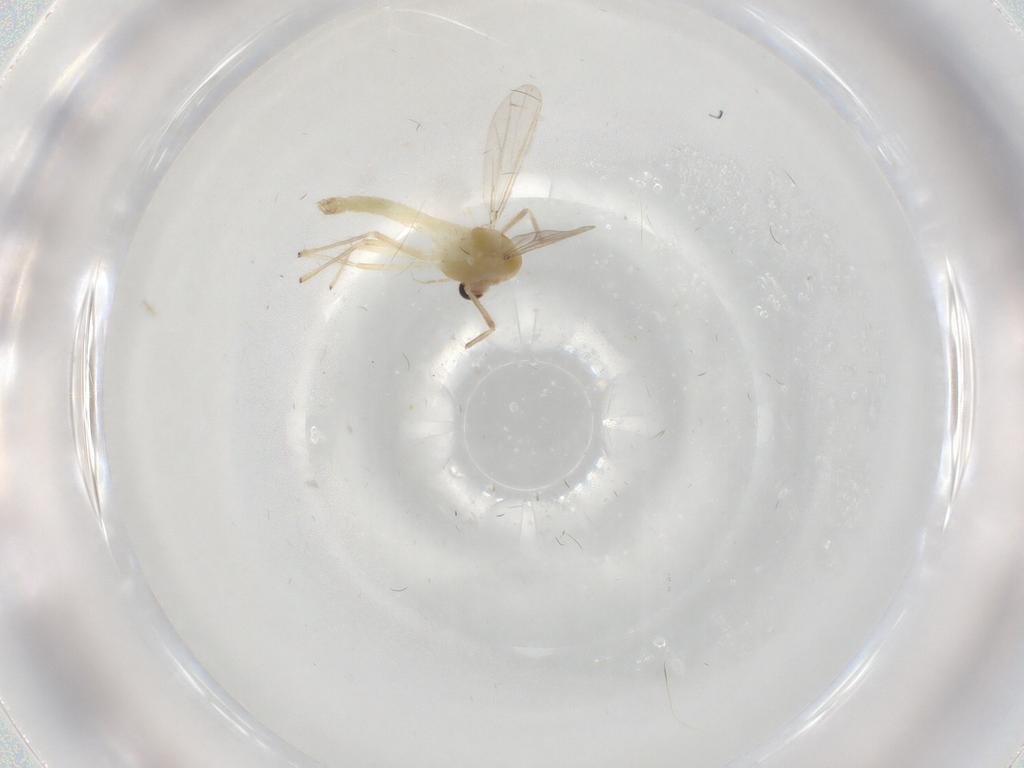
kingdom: Animalia
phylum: Arthropoda
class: Insecta
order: Diptera
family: Chironomidae
